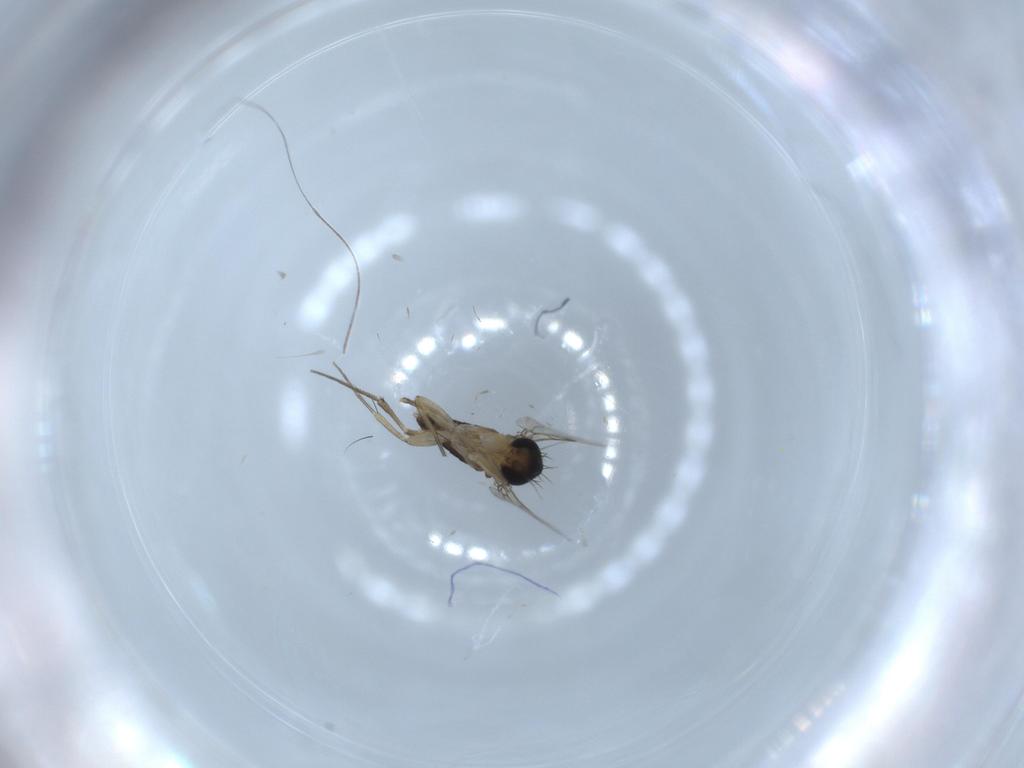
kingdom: Animalia
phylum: Arthropoda
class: Insecta
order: Diptera
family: Phoridae
